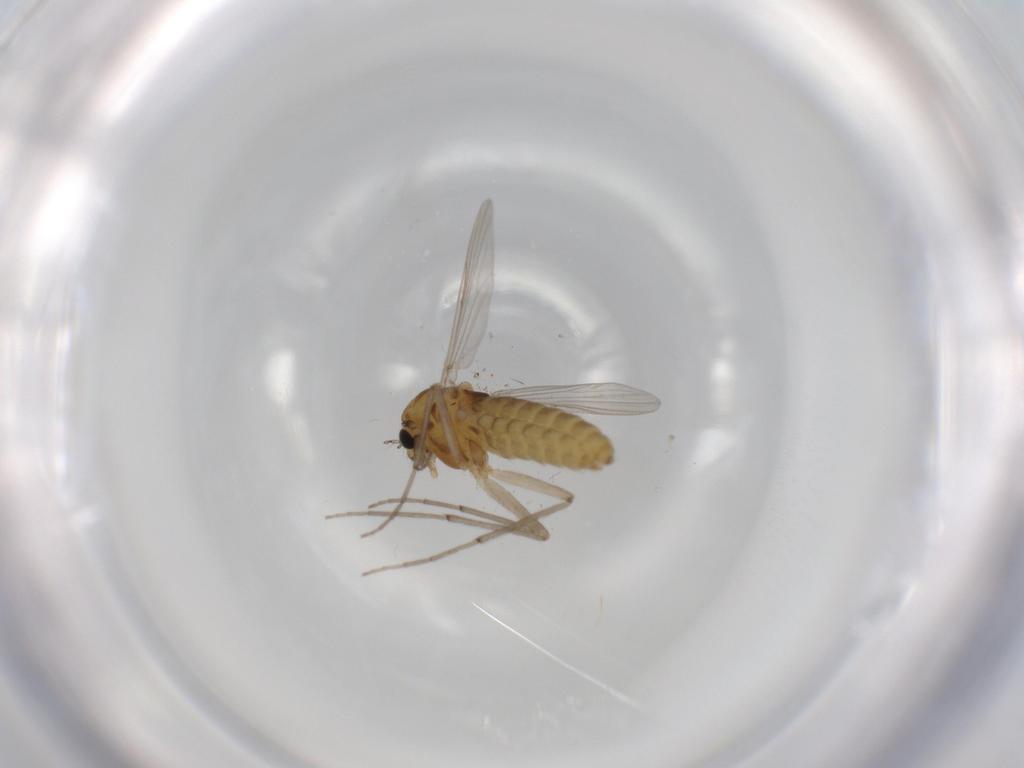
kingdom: Animalia
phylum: Arthropoda
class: Insecta
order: Diptera
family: Chironomidae
